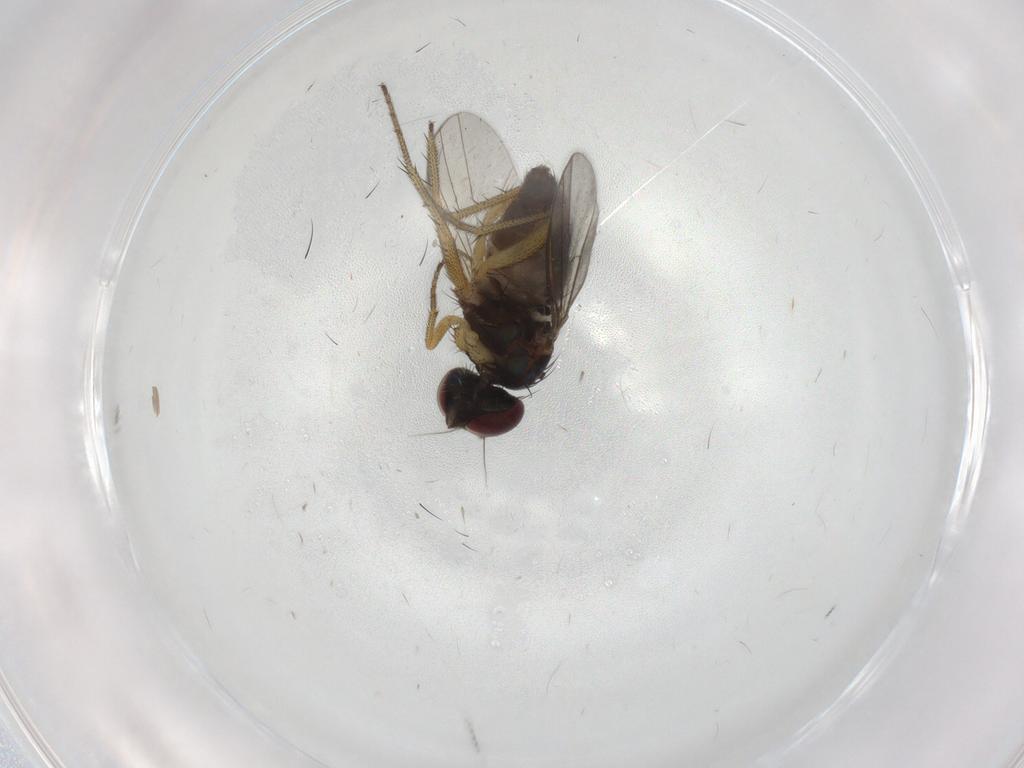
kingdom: Animalia
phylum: Arthropoda
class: Insecta
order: Diptera
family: Chironomidae
